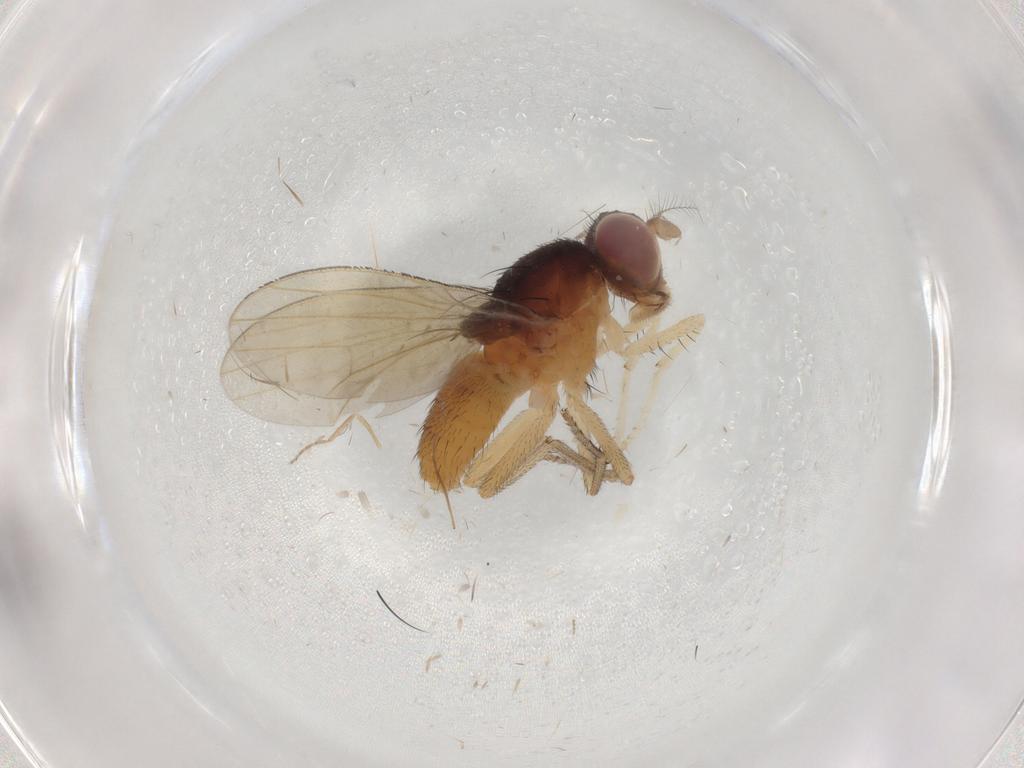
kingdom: Animalia
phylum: Arthropoda
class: Insecta
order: Diptera
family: Lauxaniidae
